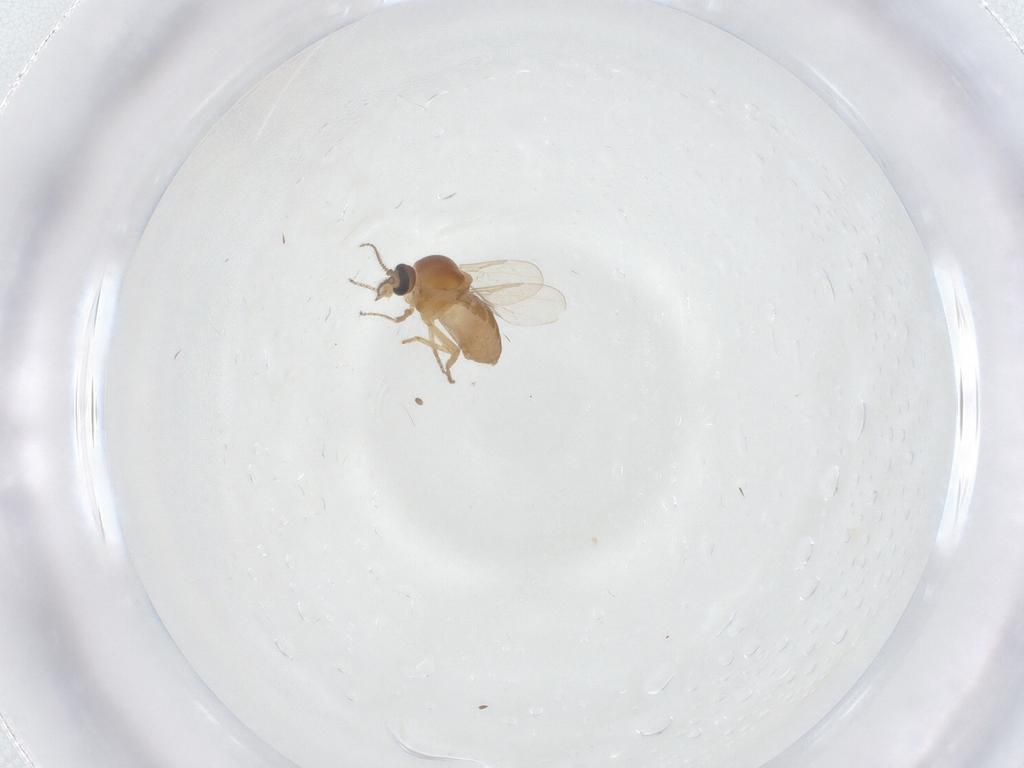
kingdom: Animalia
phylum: Arthropoda
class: Insecta
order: Diptera
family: Ceratopogonidae
